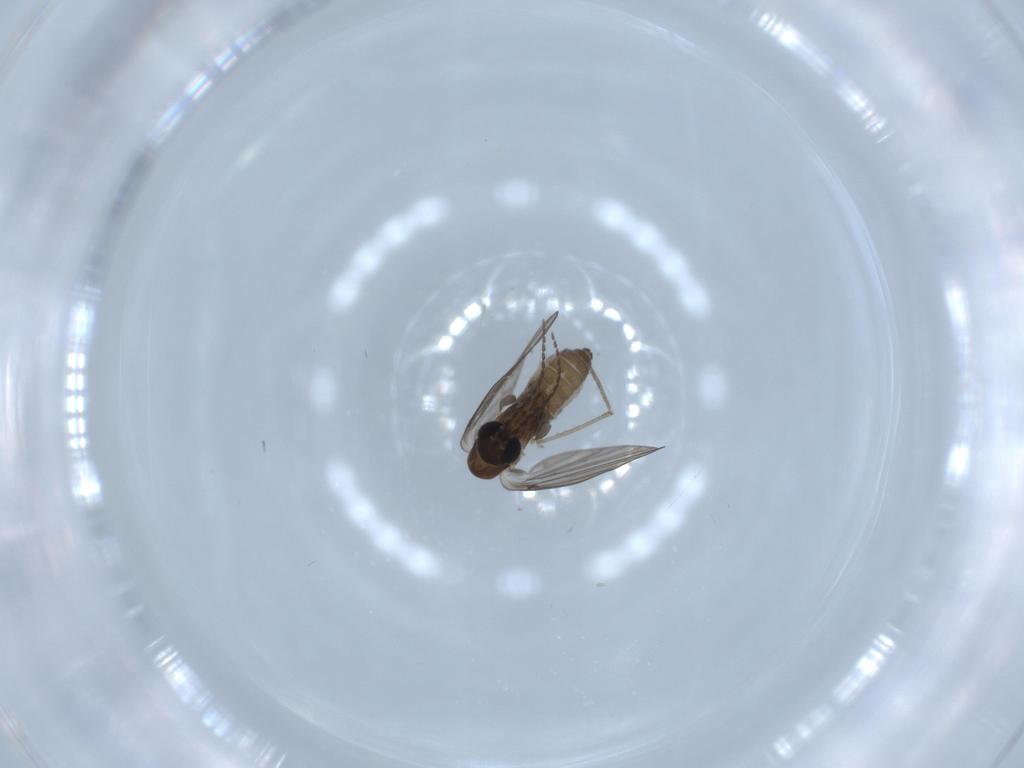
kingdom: Animalia
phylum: Arthropoda
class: Insecta
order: Diptera
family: Psychodidae
